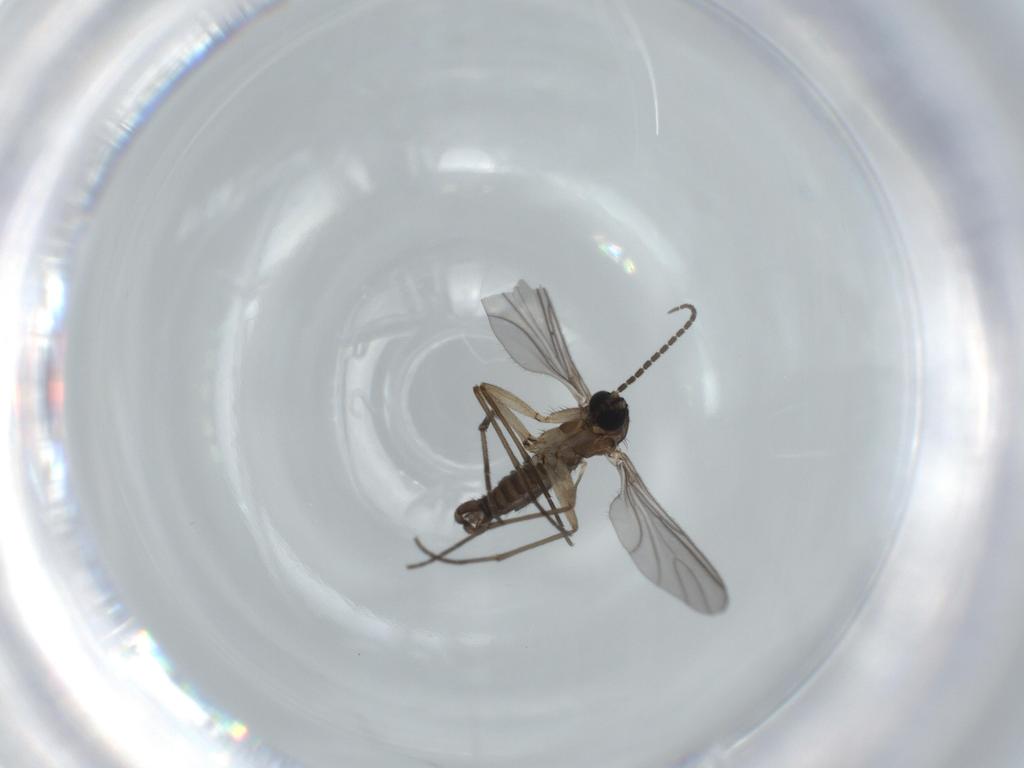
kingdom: Animalia
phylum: Arthropoda
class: Insecta
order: Diptera
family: Sciaridae
